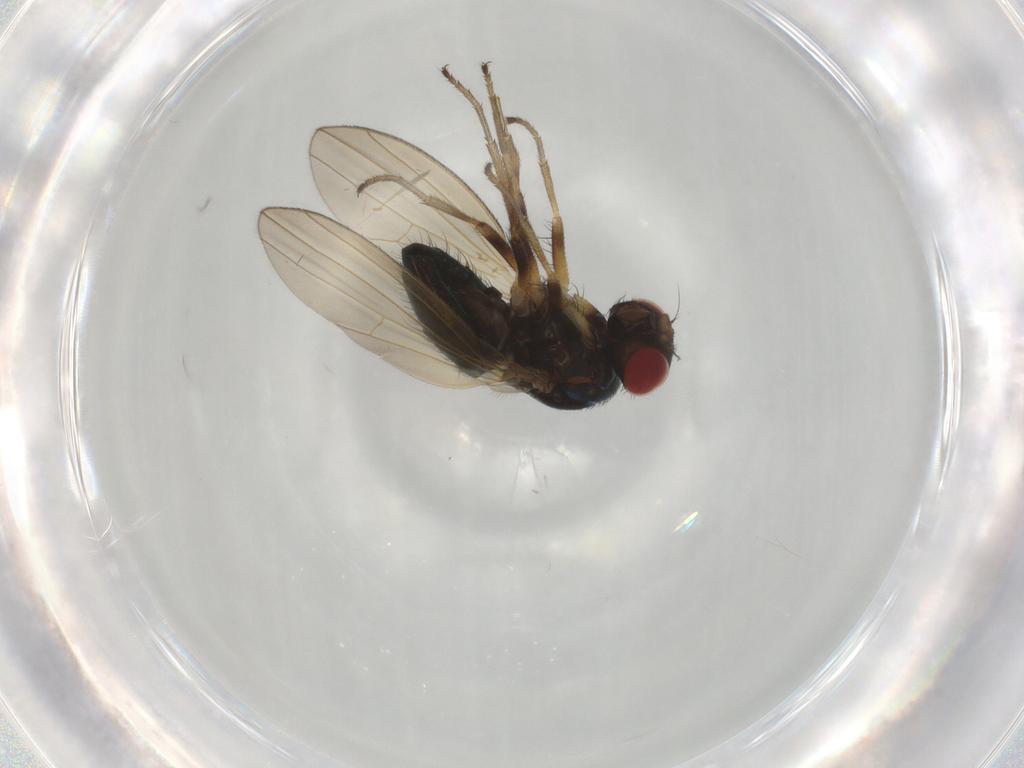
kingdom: Animalia
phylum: Arthropoda
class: Insecta
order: Diptera
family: Camillidae
